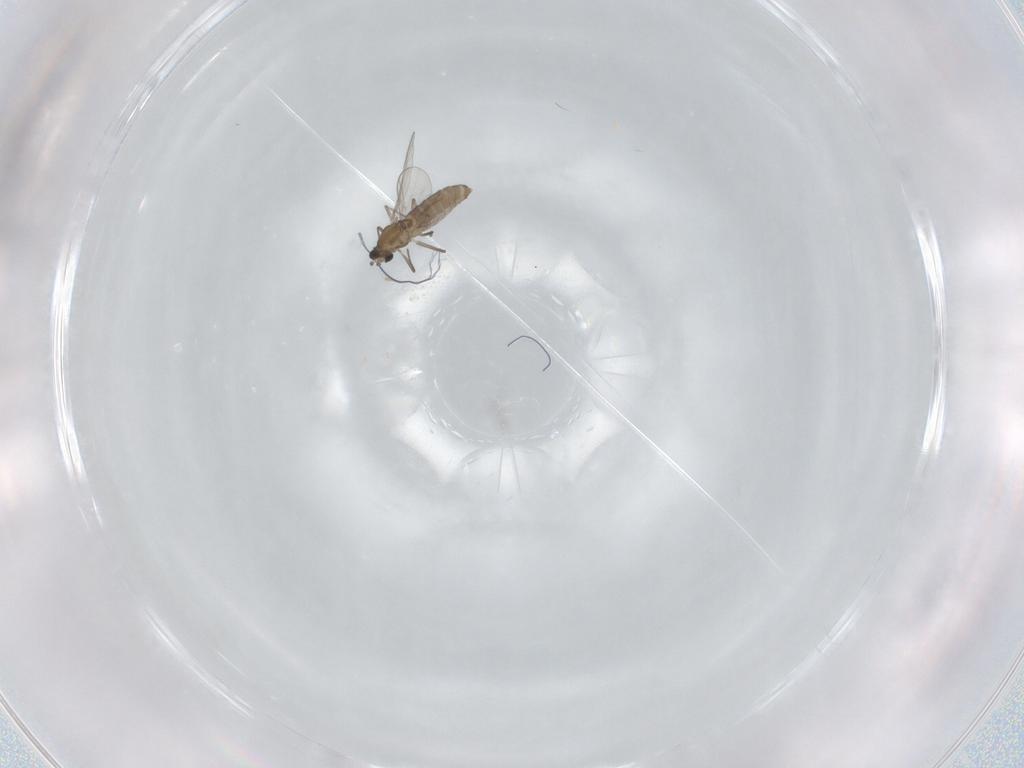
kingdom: Animalia
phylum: Arthropoda
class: Insecta
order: Diptera
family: Chironomidae
